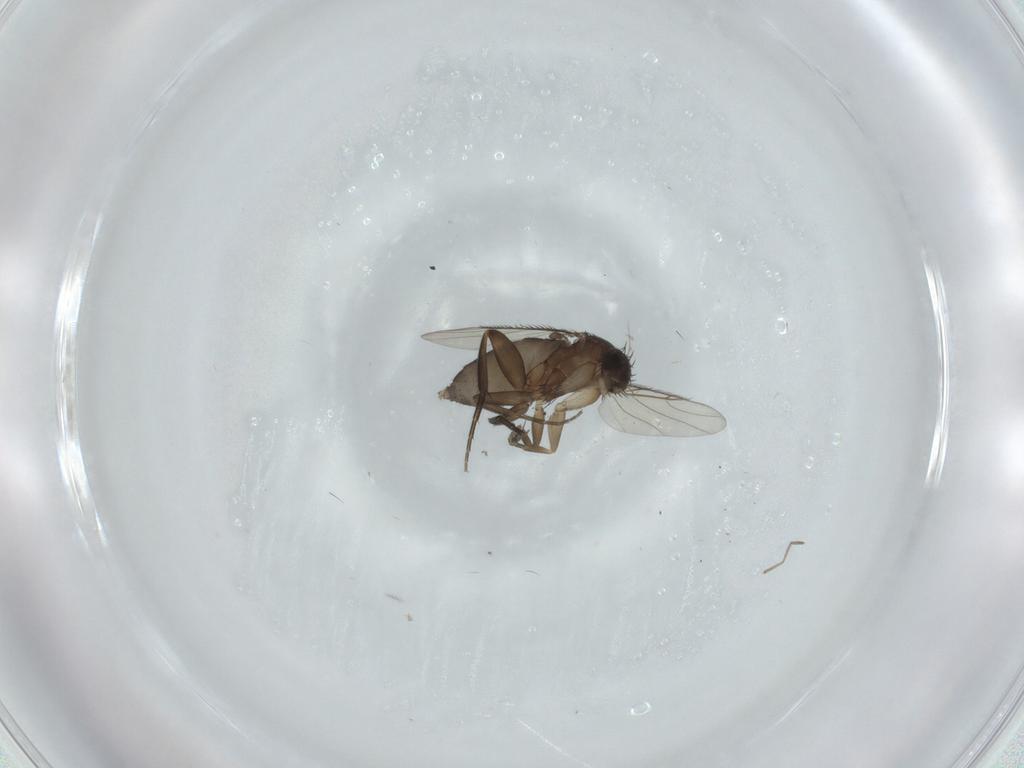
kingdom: Animalia
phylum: Arthropoda
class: Insecta
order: Diptera
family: Phoridae
